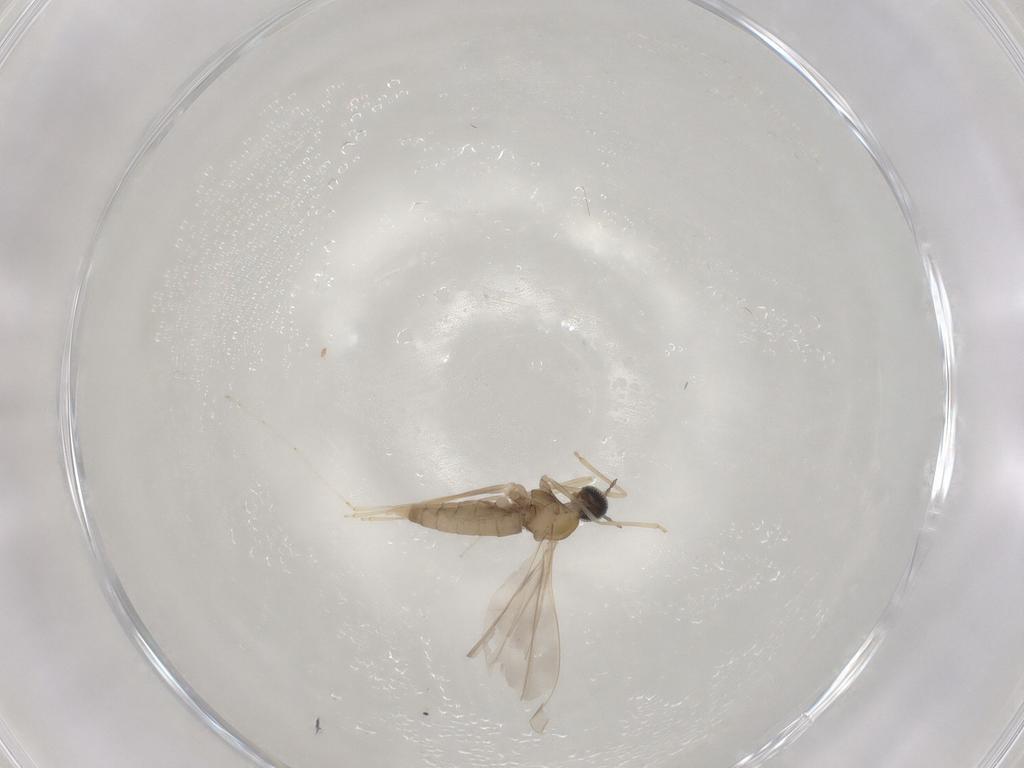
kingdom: Animalia
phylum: Arthropoda
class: Insecta
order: Diptera
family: Cecidomyiidae
